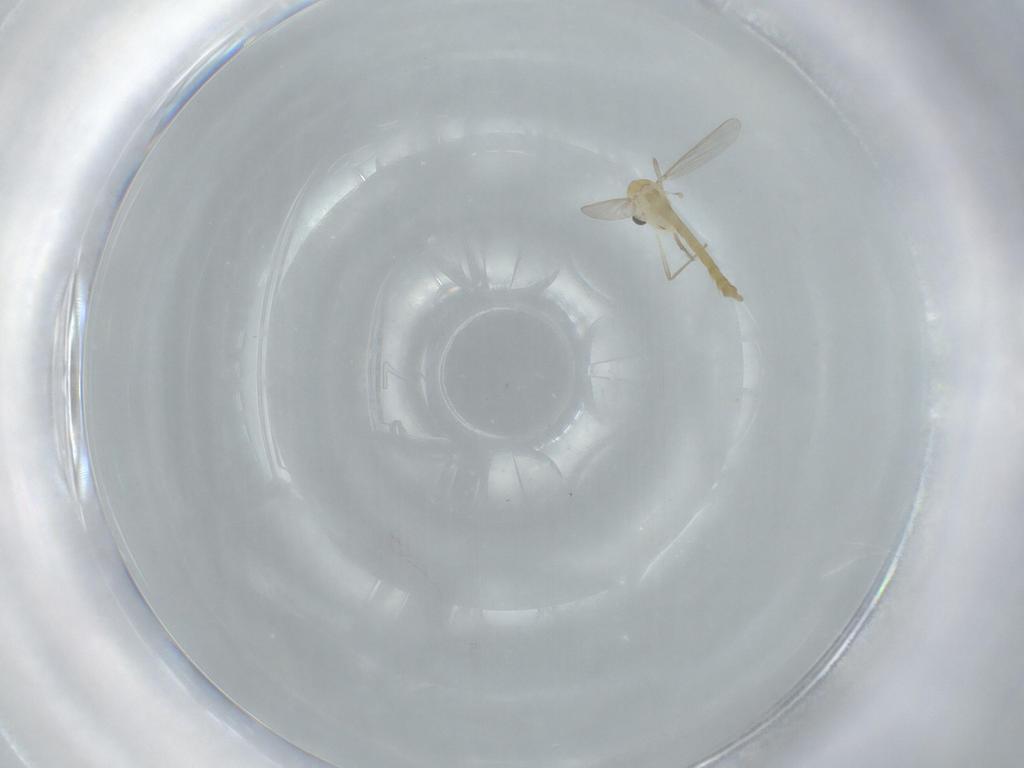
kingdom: Animalia
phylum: Arthropoda
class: Insecta
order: Diptera
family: Chironomidae
